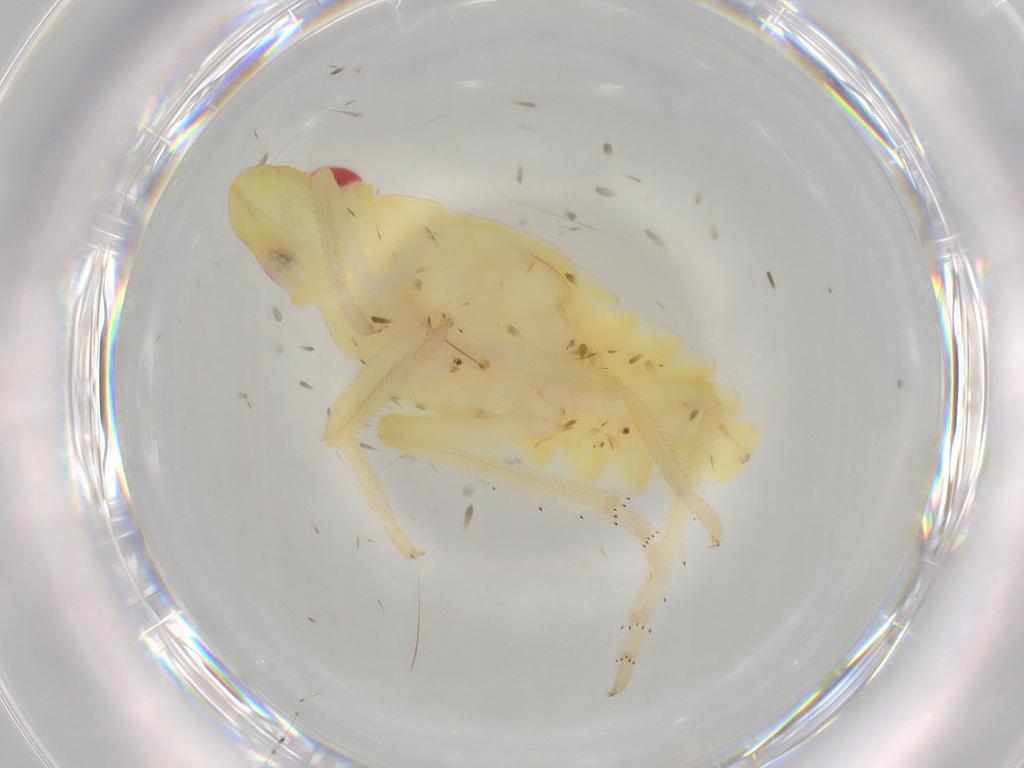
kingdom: Animalia
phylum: Arthropoda
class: Insecta
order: Hemiptera
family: Tropiduchidae
